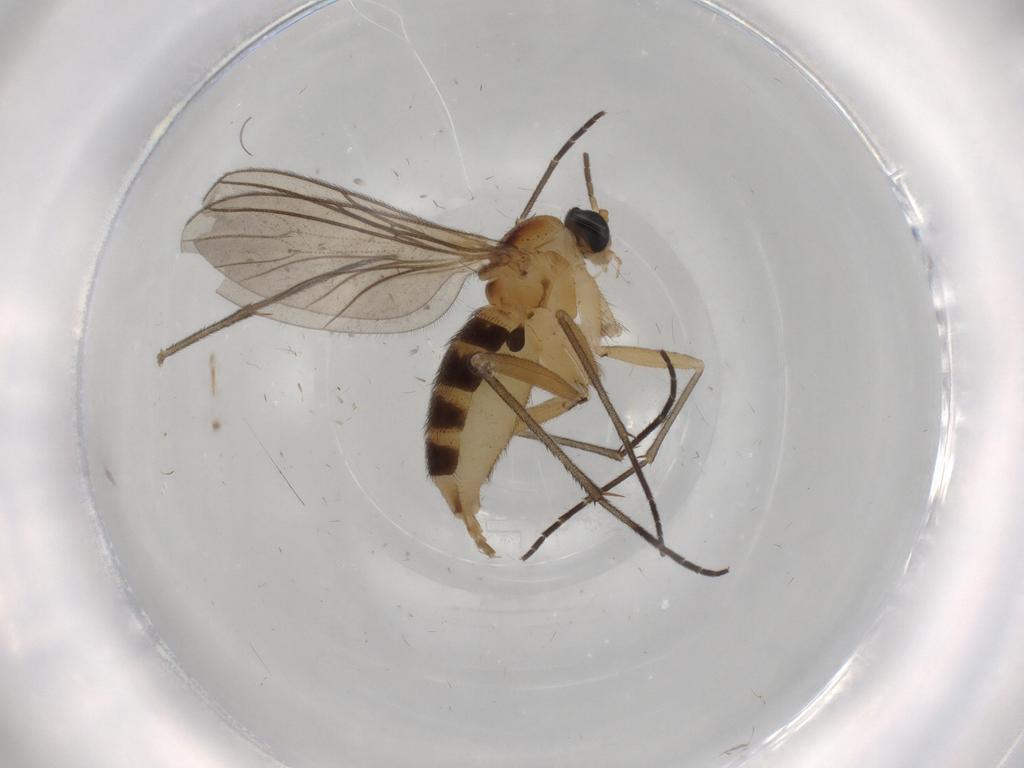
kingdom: Animalia
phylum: Arthropoda
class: Insecta
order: Diptera
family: Sciaridae
